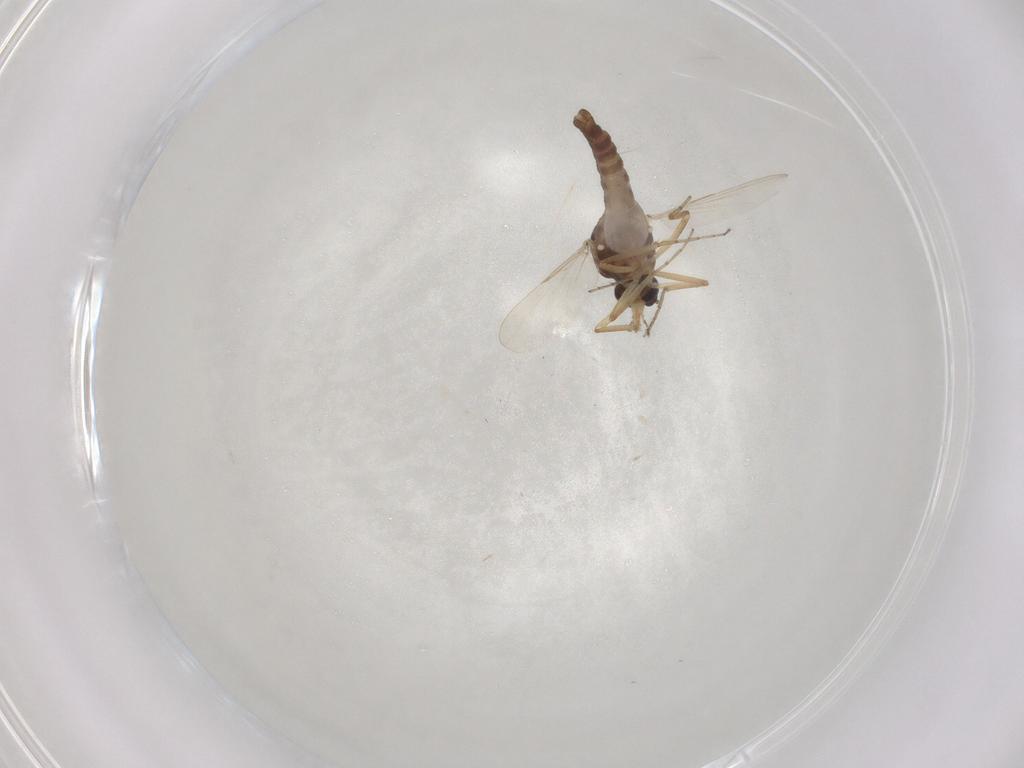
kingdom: Animalia
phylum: Arthropoda
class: Insecta
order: Diptera
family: Ceratopogonidae
